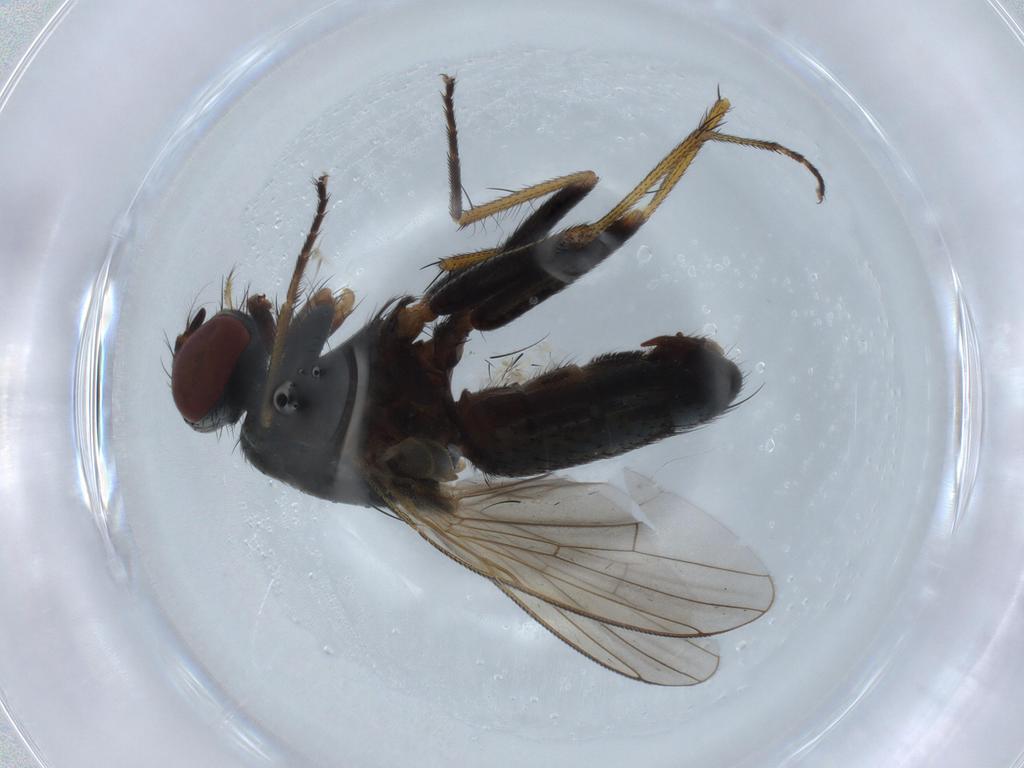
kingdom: Animalia
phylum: Arthropoda
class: Insecta
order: Diptera
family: Muscidae
